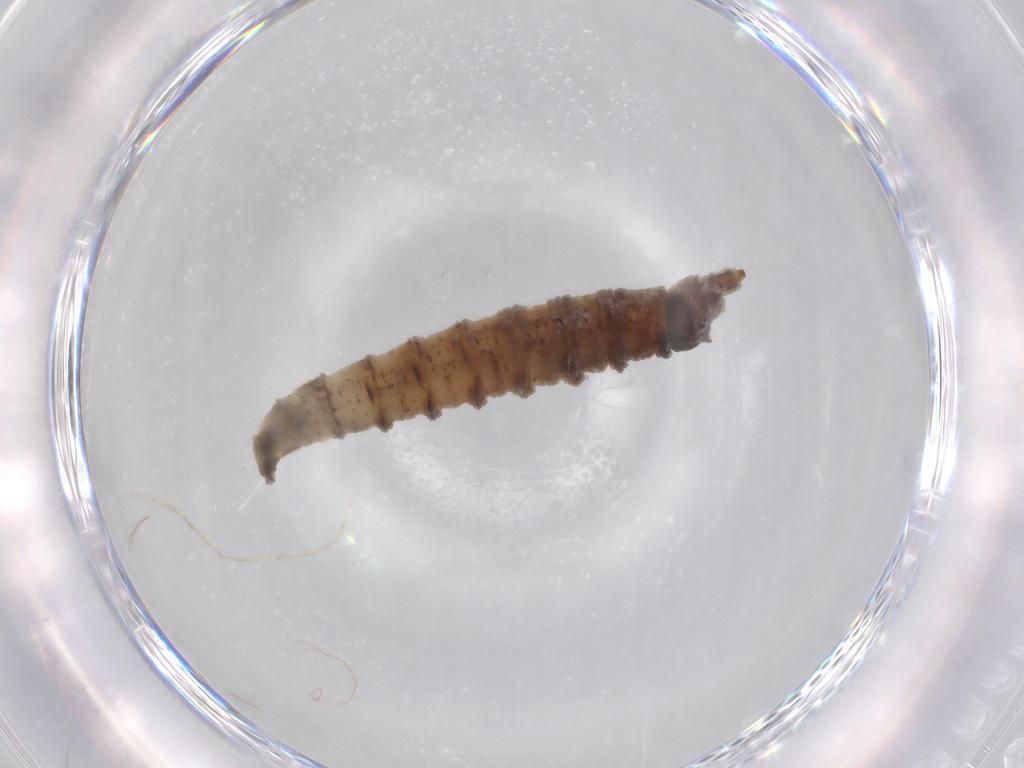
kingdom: Animalia
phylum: Arthropoda
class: Insecta
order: Diptera
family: Drosophilidae
